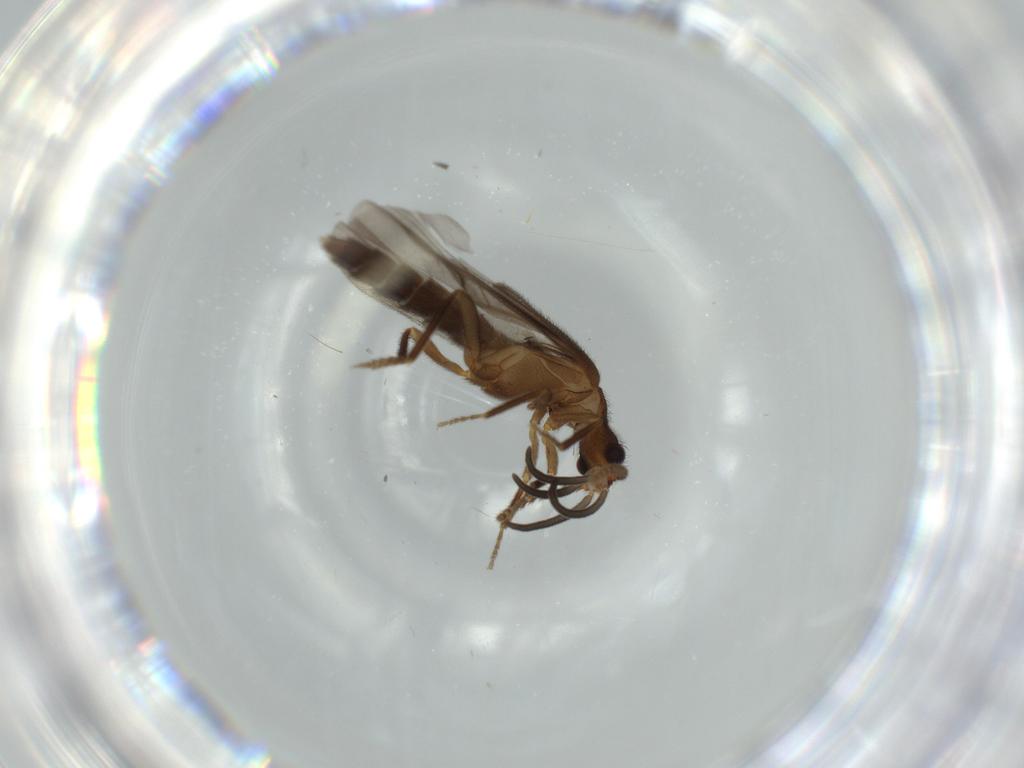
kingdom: Animalia
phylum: Arthropoda
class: Insecta
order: Coleoptera
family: Omethidae
